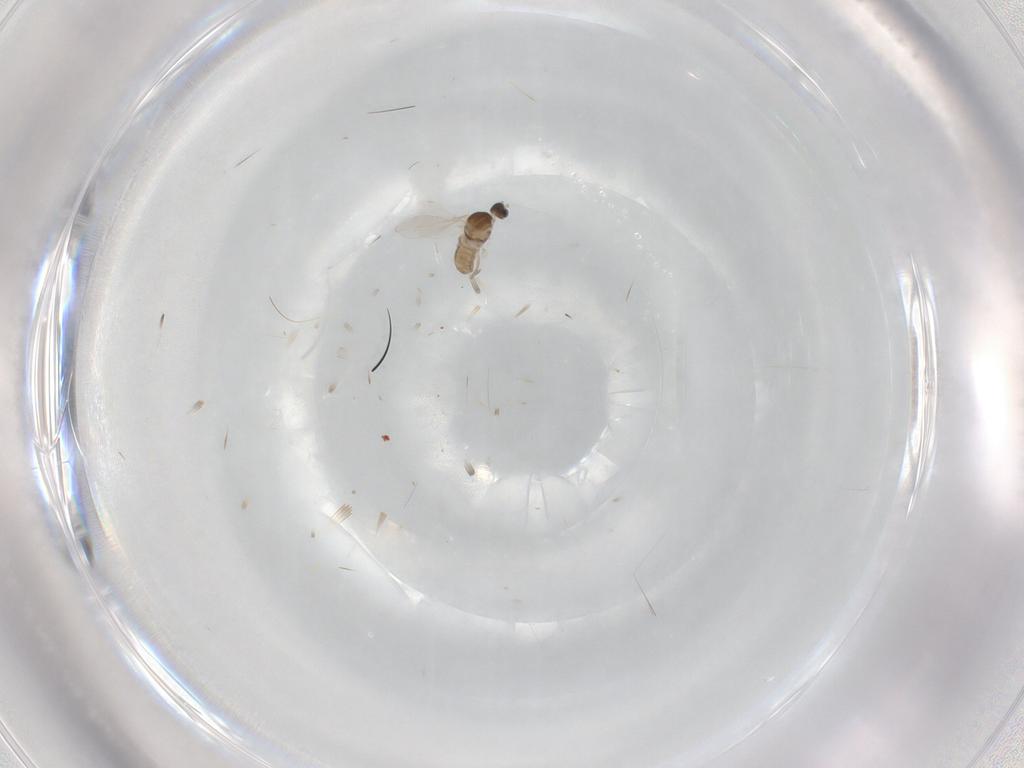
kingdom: Animalia
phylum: Arthropoda
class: Insecta
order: Diptera
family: Cecidomyiidae
